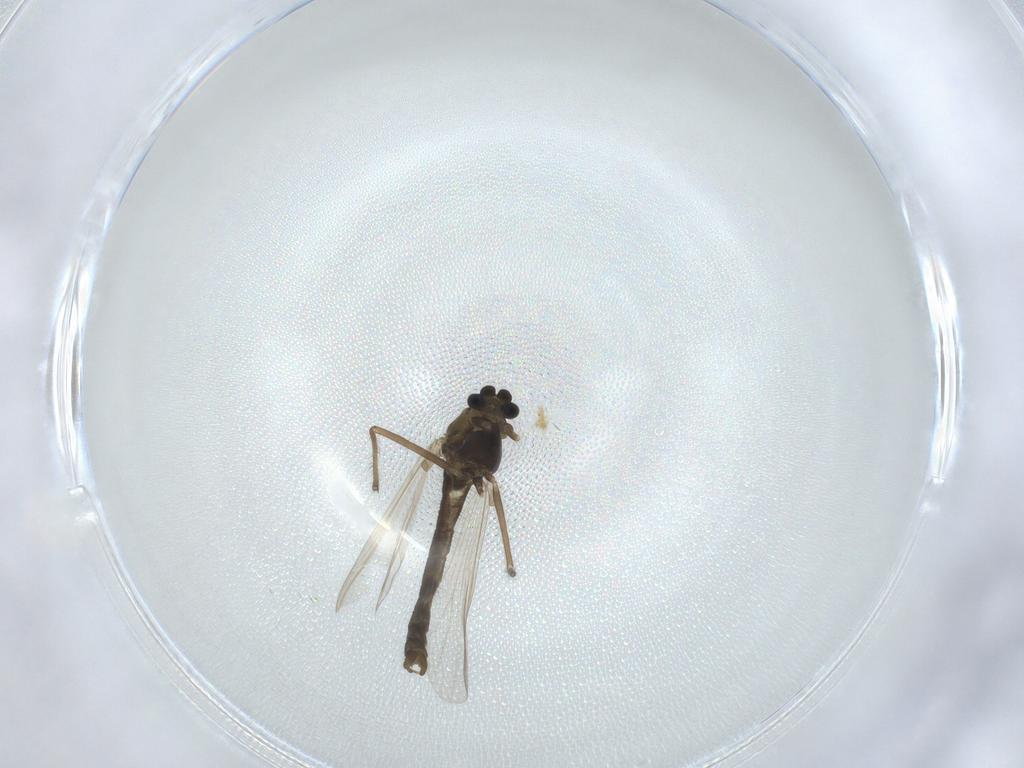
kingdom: Animalia
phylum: Arthropoda
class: Insecta
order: Diptera
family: Chironomidae
